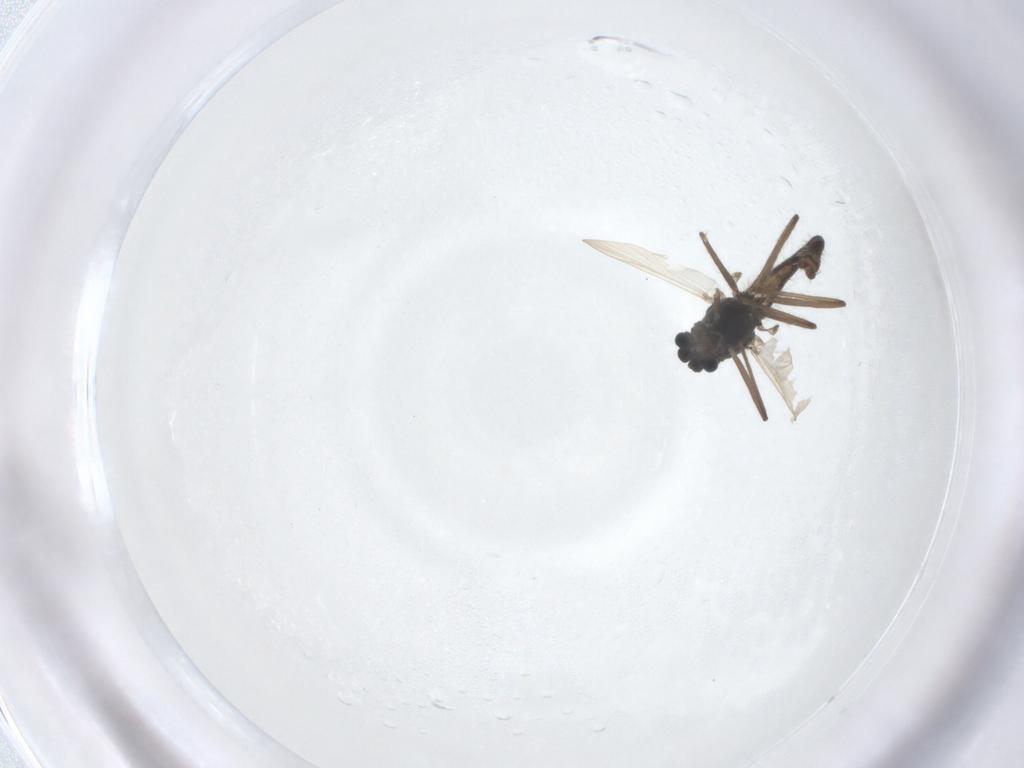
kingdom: Animalia
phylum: Arthropoda
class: Insecta
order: Diptera
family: Chironomidae
